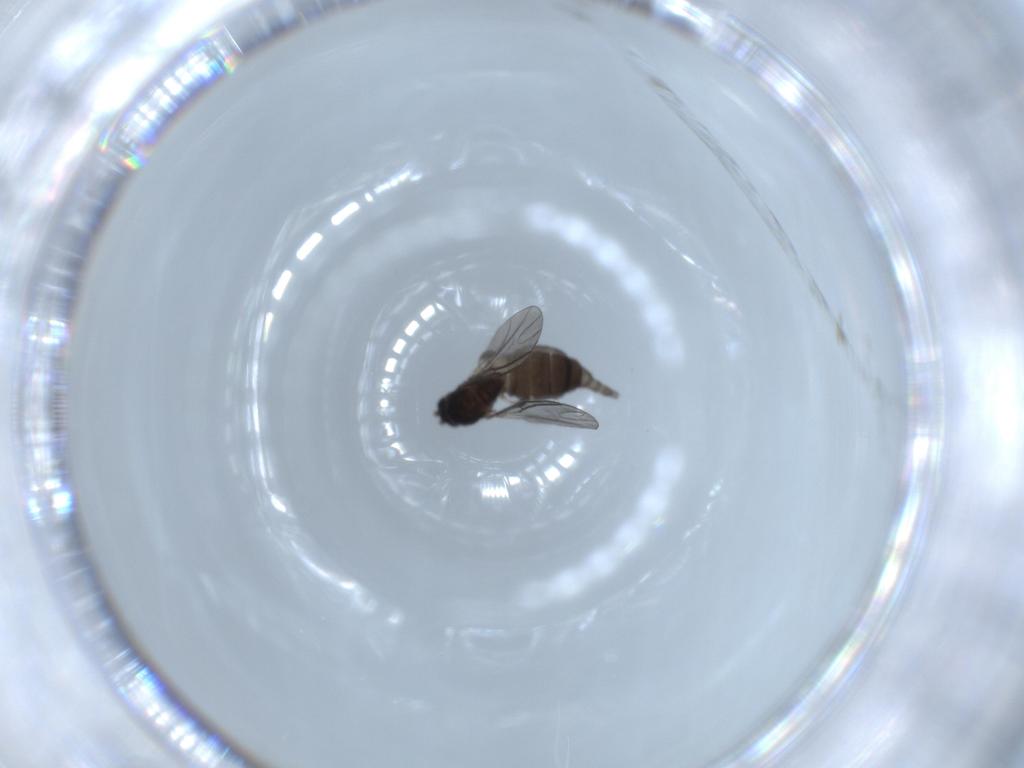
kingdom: Animalia
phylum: Arthropoda
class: Insecta
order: Diptera
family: Sciaridae
